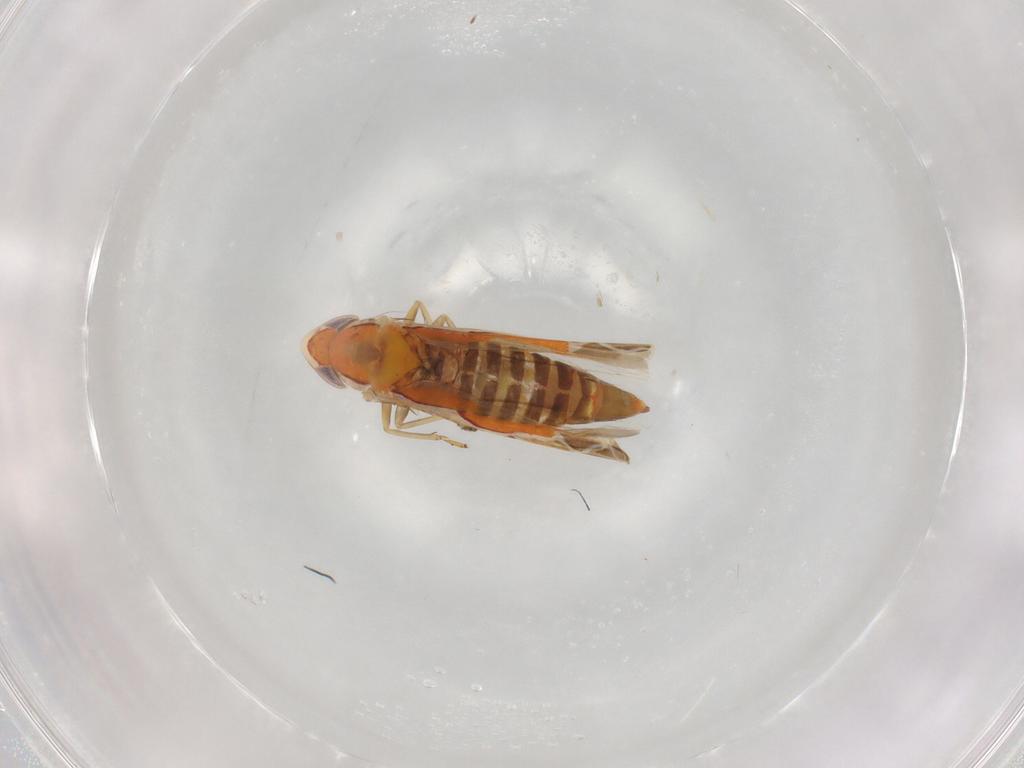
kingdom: Animalia
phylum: Arthropoda
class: Insecta
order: Hemiptera
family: Cicadellidae
